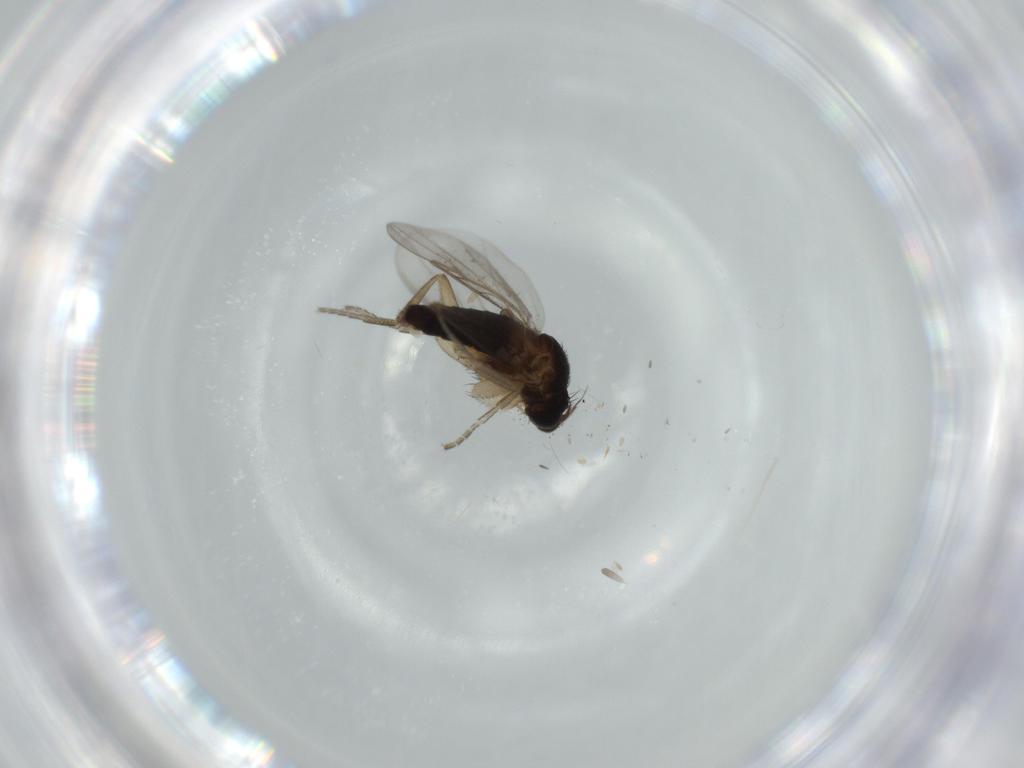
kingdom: Animalia
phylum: Arthropoda
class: Insecta
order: Diptera
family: Phoridae
